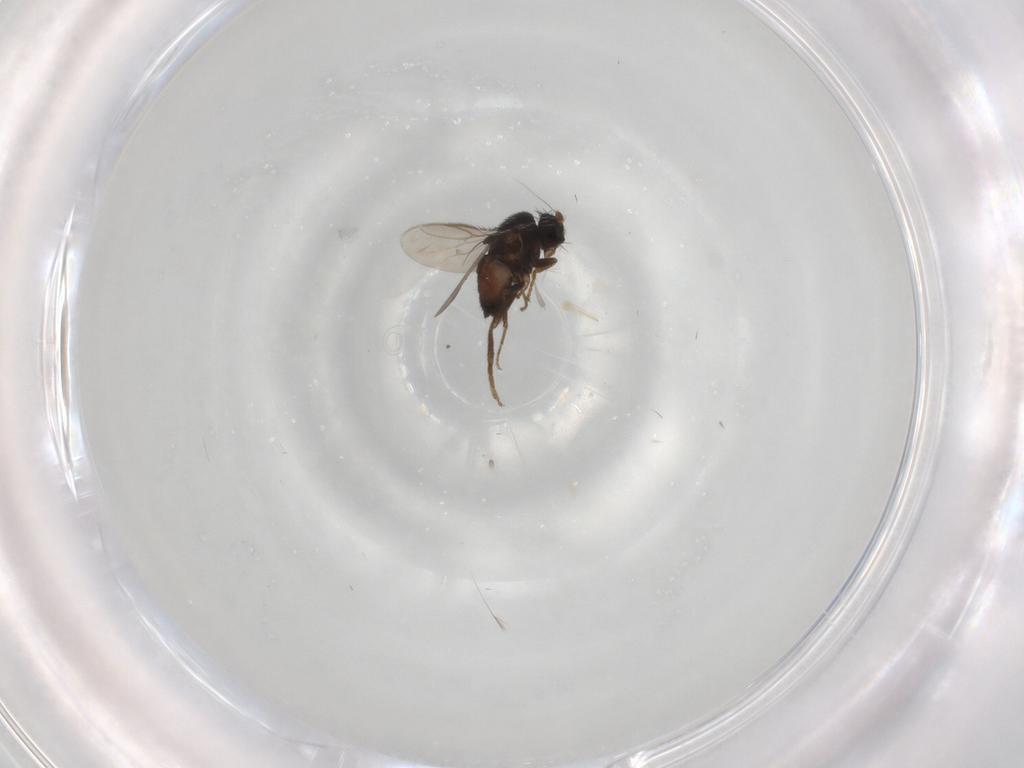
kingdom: Animalia
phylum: Arthropoda
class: Insecta
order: Diptera
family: Sphaeroceridae
